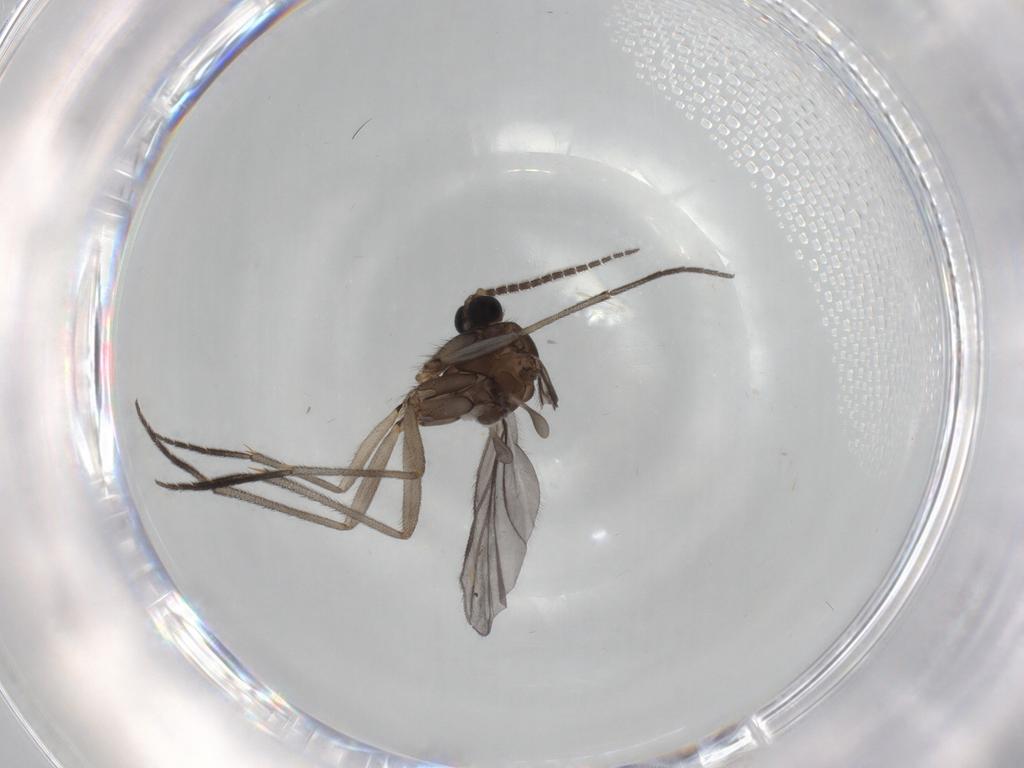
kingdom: Animalia
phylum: Arthropoda
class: Insecta
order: Diptera
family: Sciaridae
